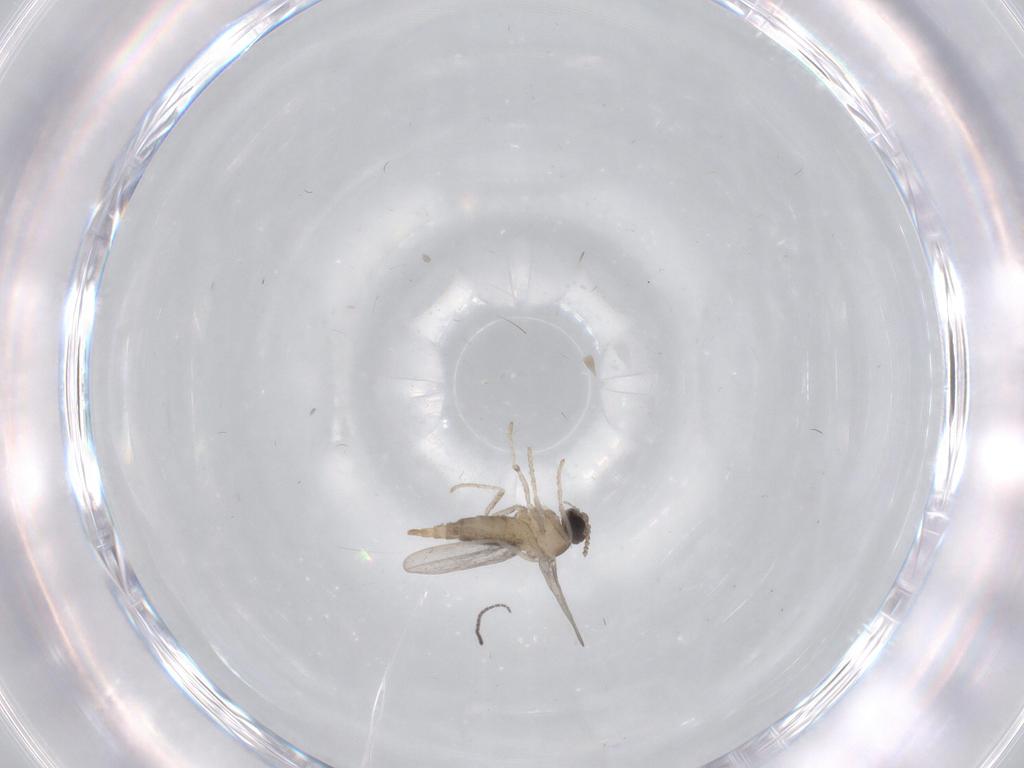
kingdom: Animalia
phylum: Arthropoda
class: Insecta
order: Diptera
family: Cecidomyiidae
